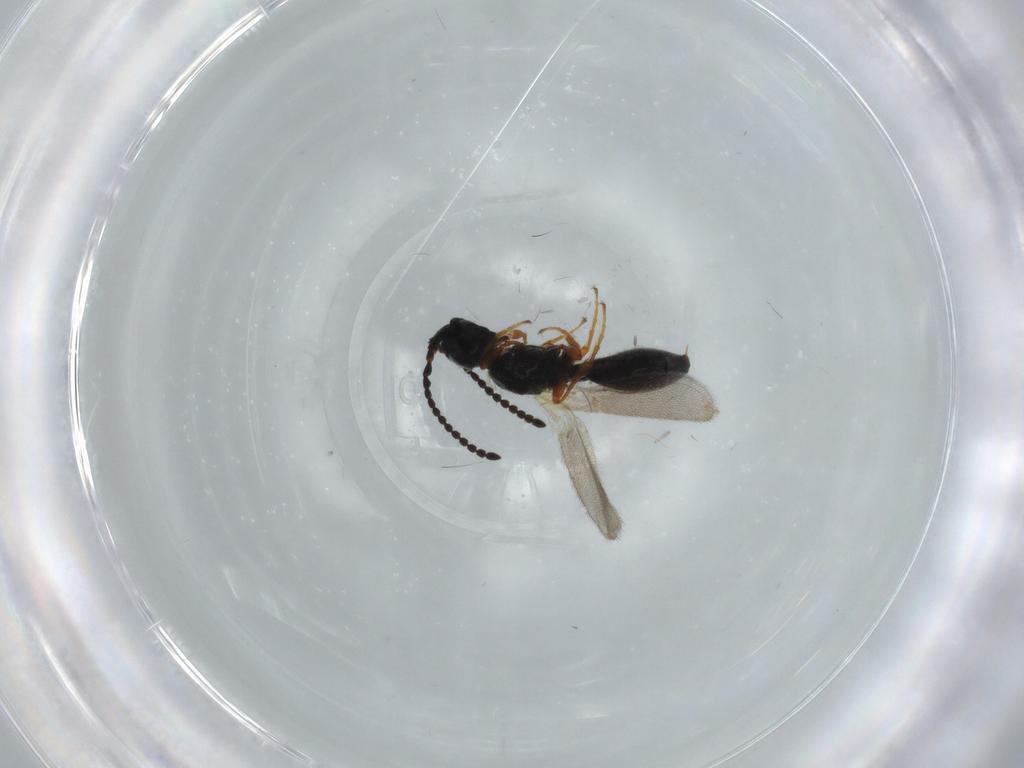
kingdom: Animalia
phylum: Arthropoda
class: Insecta
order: Hymenoptera
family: Diapriidae
